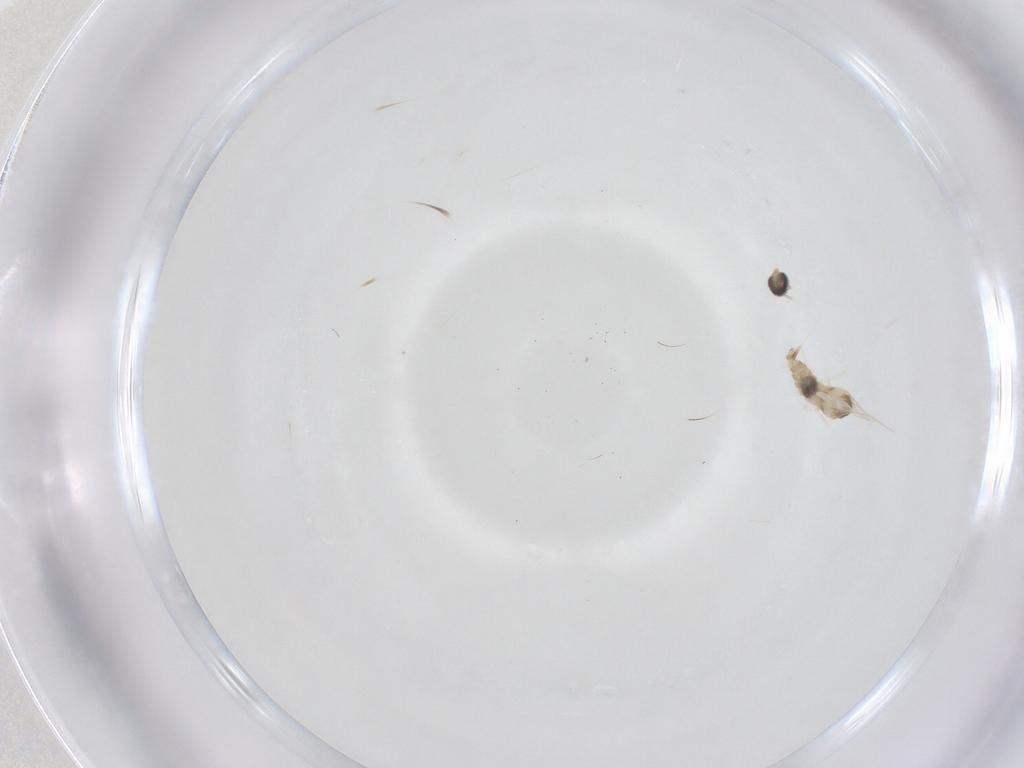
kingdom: Animalia
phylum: Arthropoda
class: Insecta
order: Diptera
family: Cecidomyiidae
